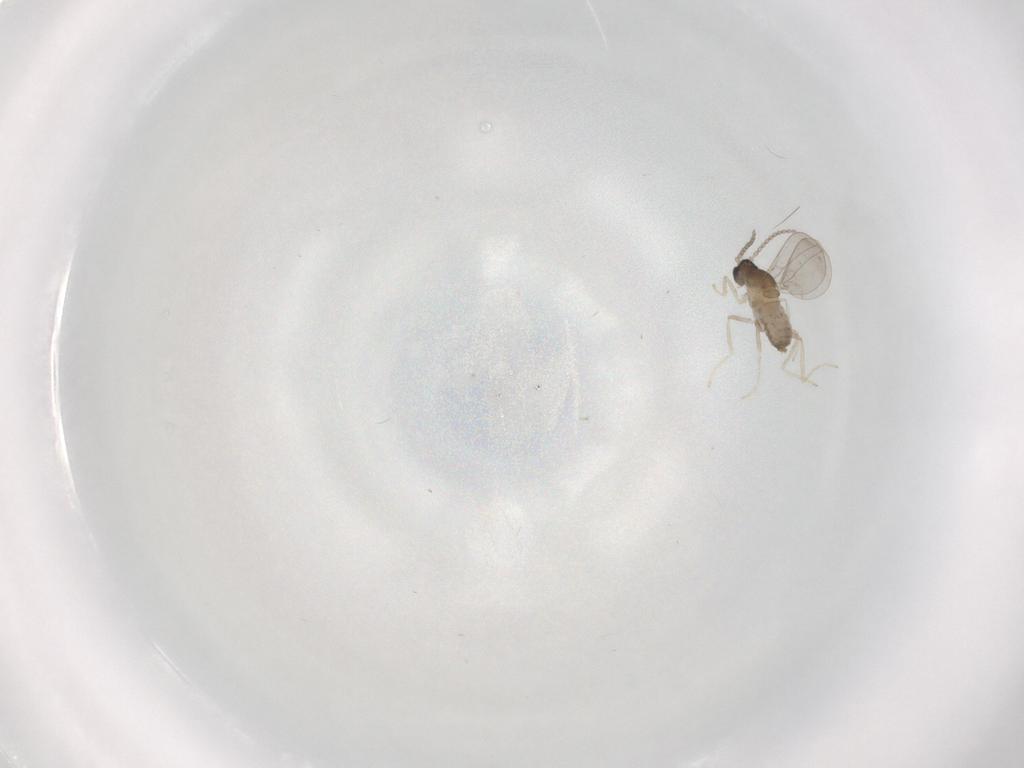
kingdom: Animalia
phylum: Arthropoda
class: Insecta
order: Diptera
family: Cecidomyiidae
